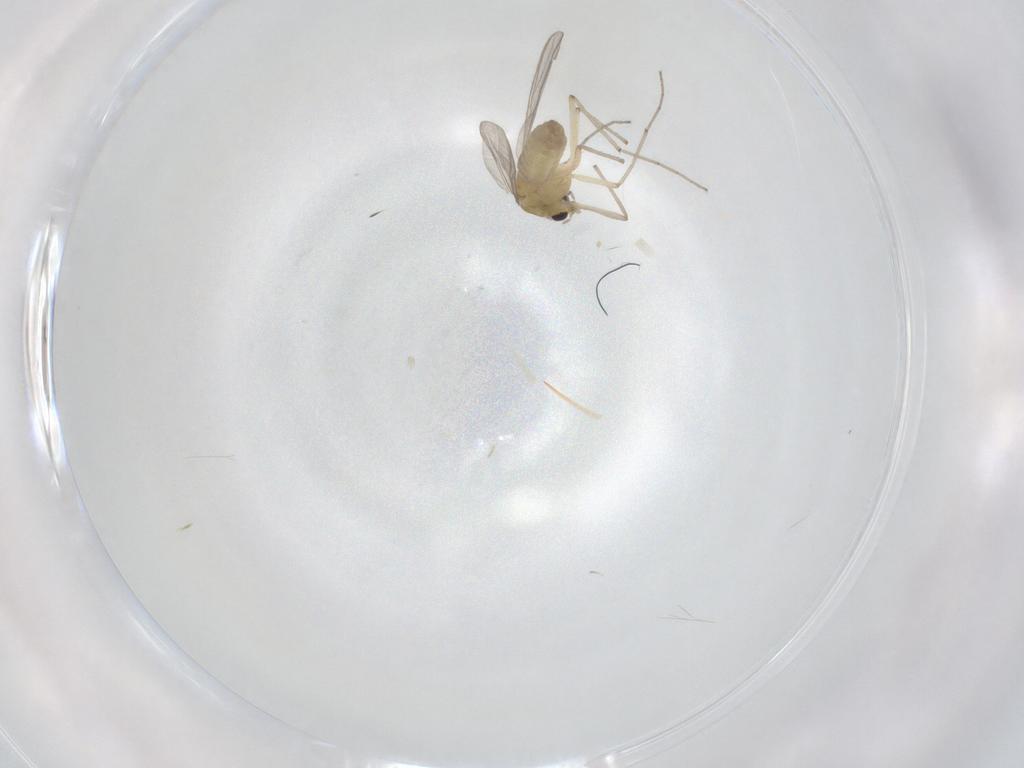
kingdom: Animalia
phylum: Arthropoda
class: Insecta
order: Diptera
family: Chironomidae
